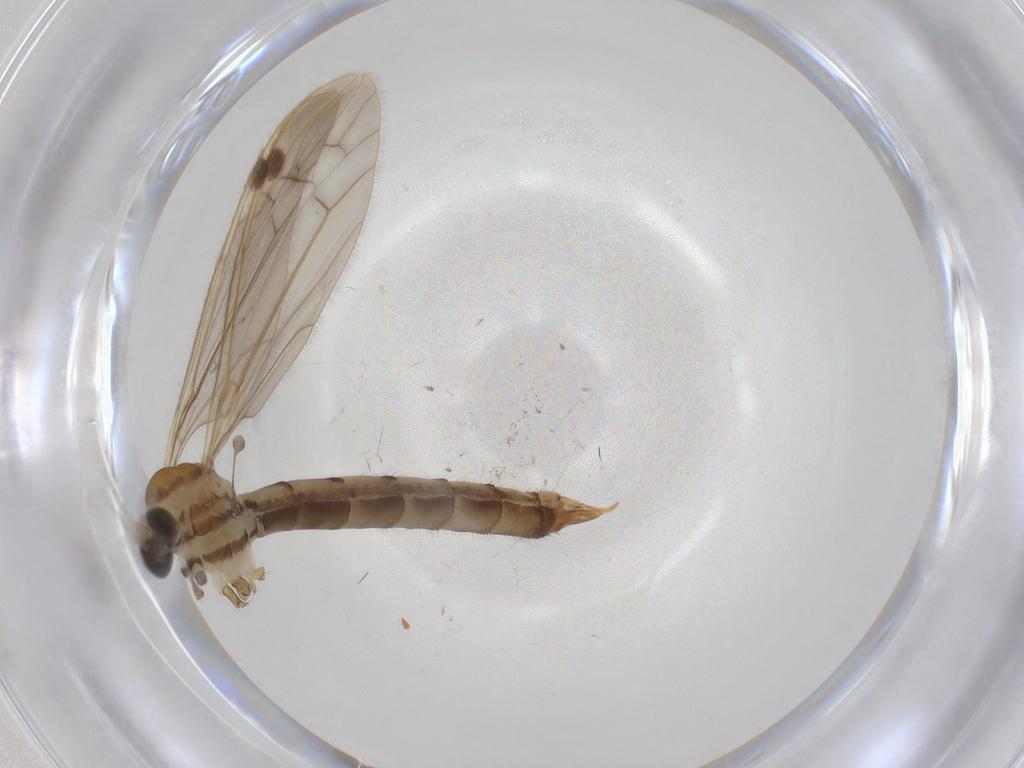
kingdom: Animalia
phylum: Arthropoda
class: Insecta
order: Diptera
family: Limoniidae
